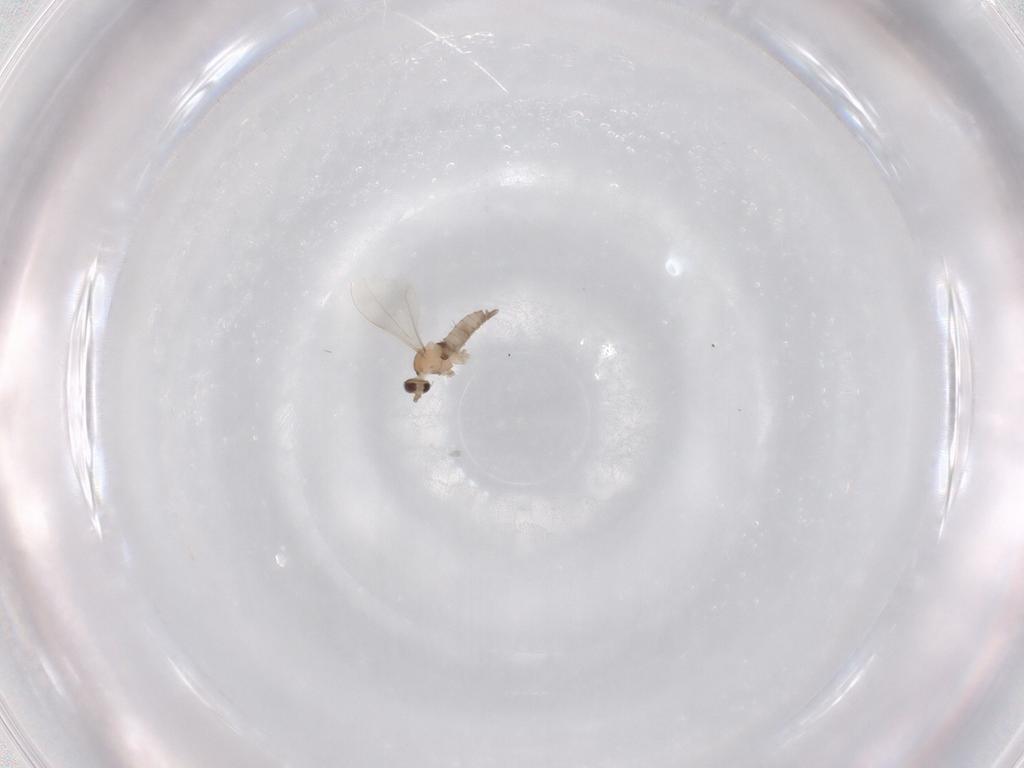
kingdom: Animalia
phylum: Arthropoda
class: Insecta
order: Diptera
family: Cecidomyiidae
